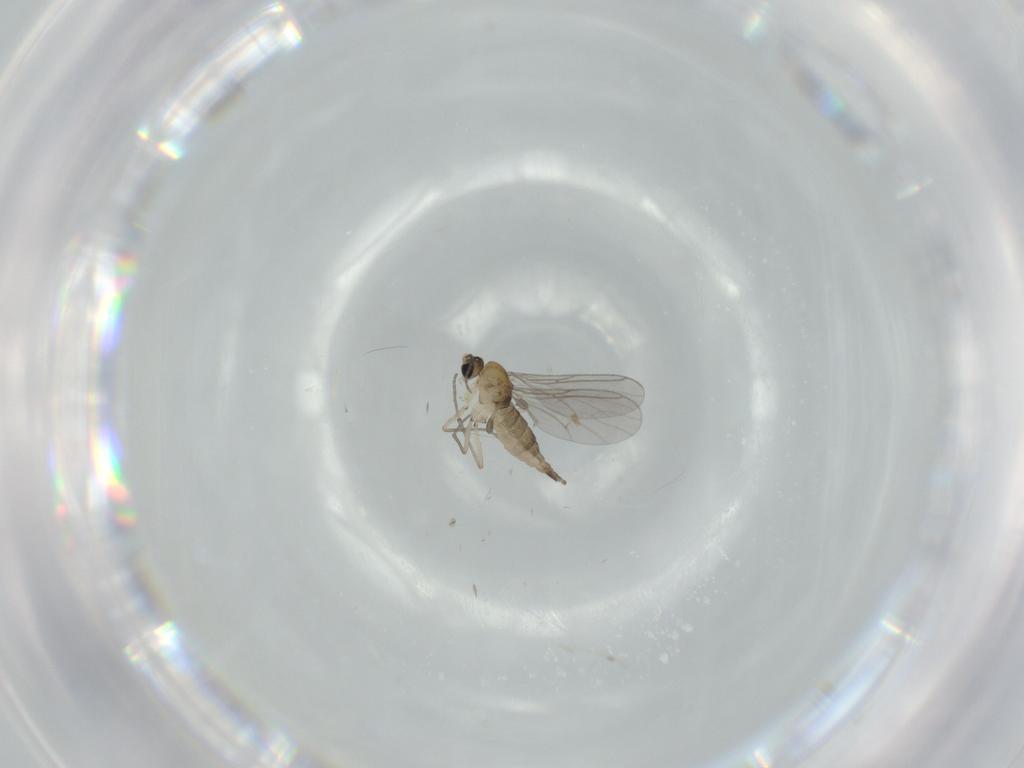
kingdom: Animalia
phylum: Arthropoda
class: Insecta
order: Diptera
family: Sciaridae
